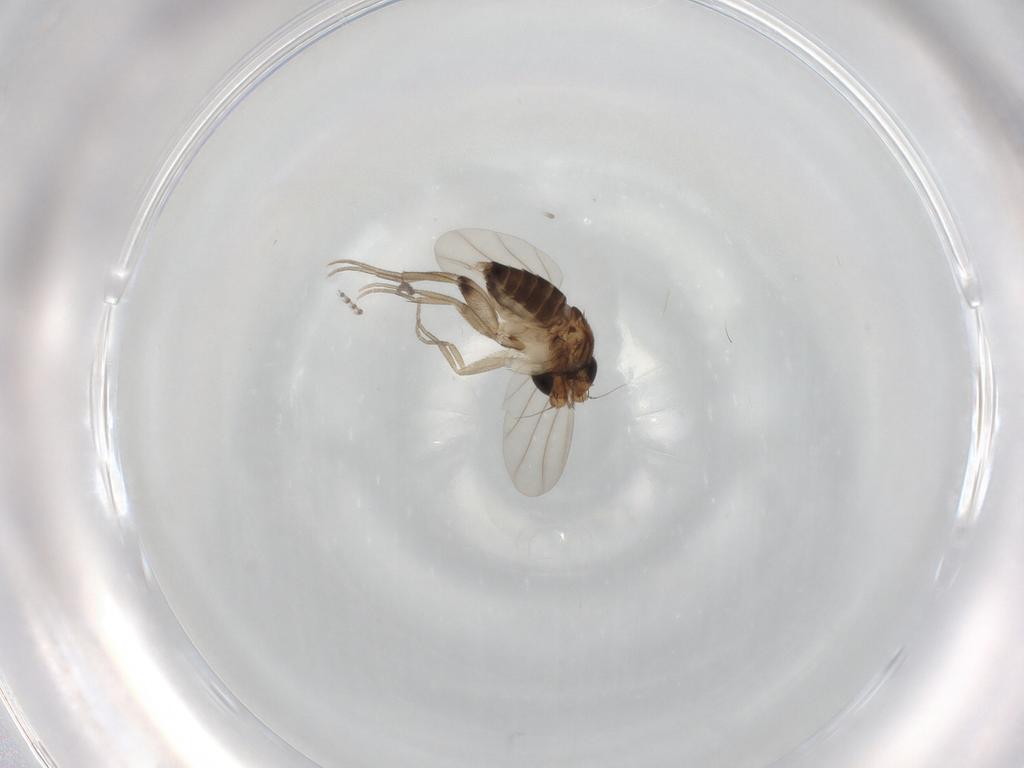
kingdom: Animalia
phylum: Arthropoda
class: Insecta
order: Diptera
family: Phoridae
